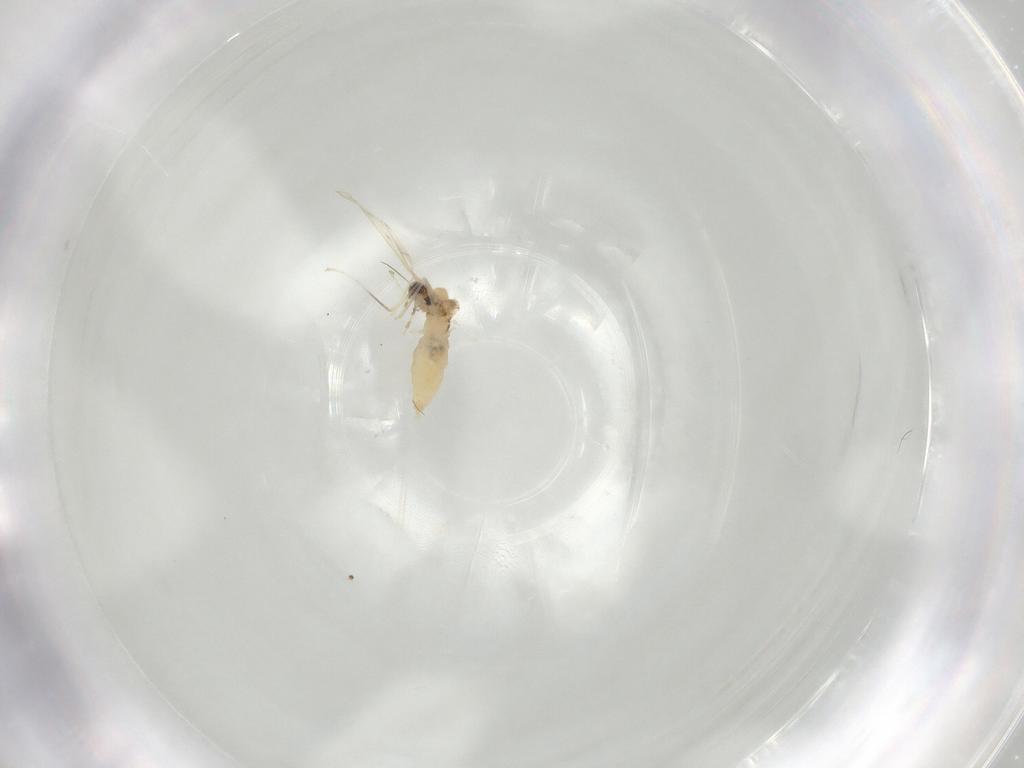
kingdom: Animalia
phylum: Arthropoda
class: Insecta
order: Diptera
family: Cecidomyiidae
